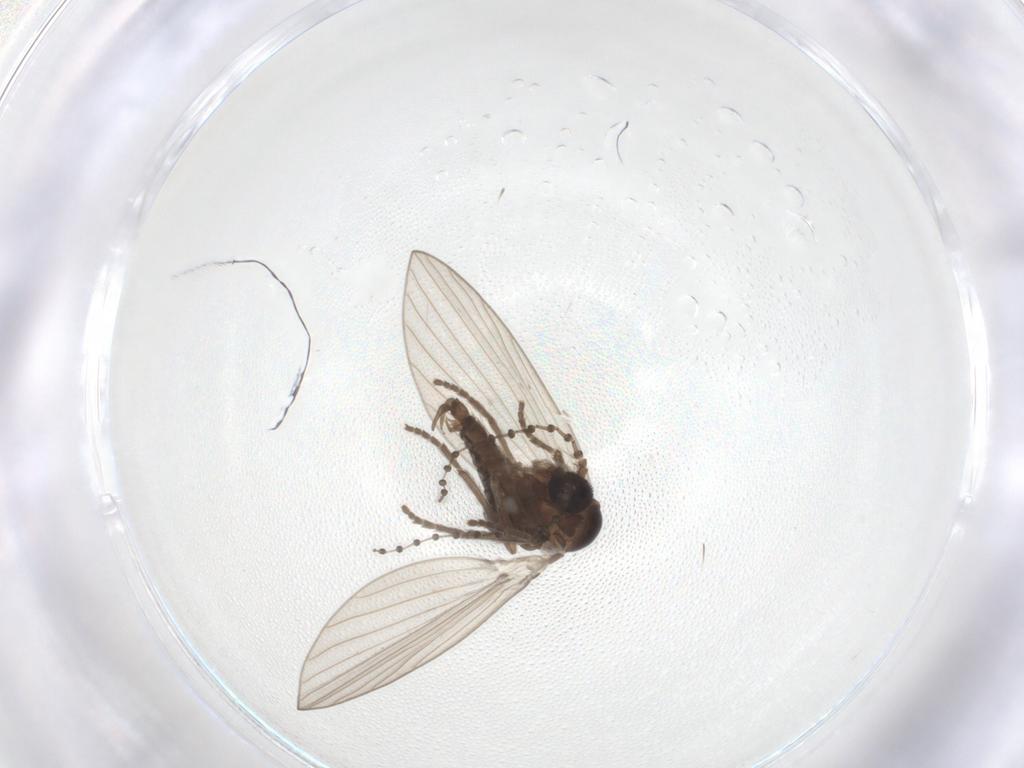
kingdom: Animalia
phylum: Arthropoda
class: Insecta
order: Diptera
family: Psychodidae
